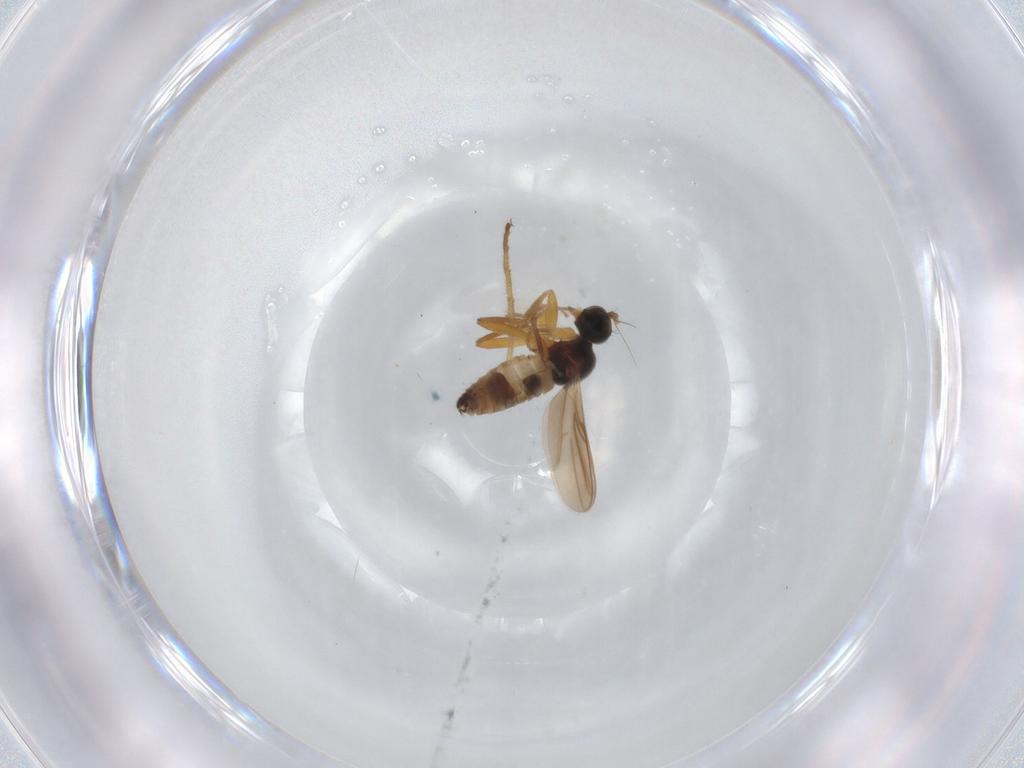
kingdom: Animalia
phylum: Arthropoda
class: Insecta
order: Diptera
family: Hybotidae
